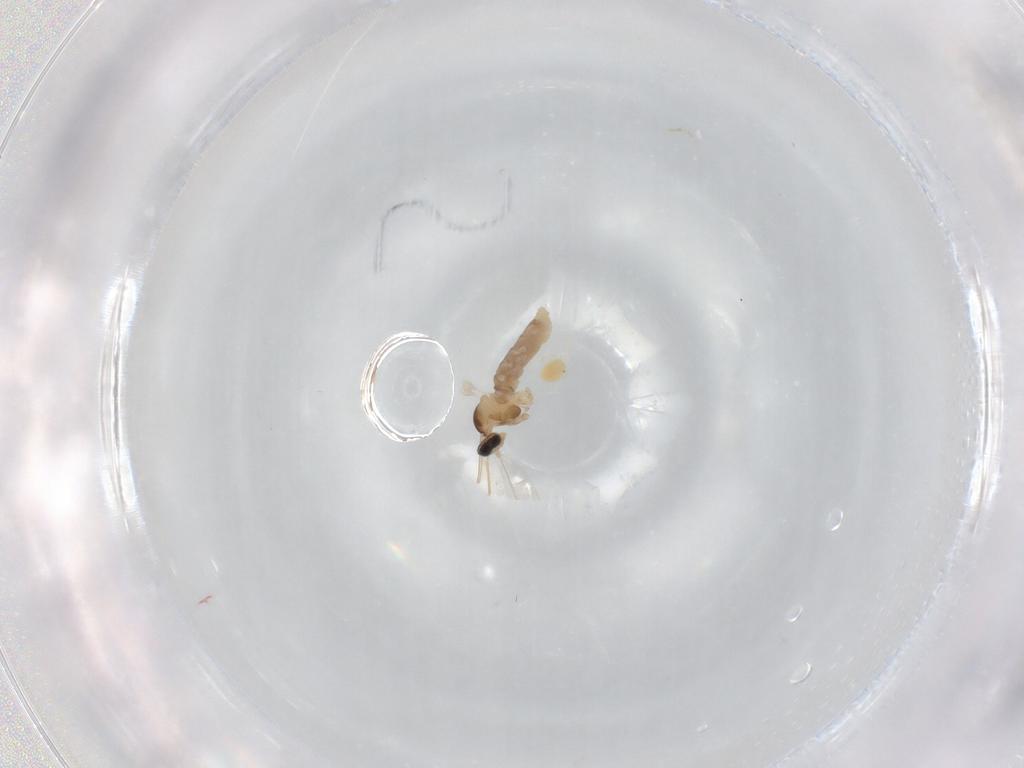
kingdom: Animalia
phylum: Arthropoda
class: Insecta
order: Diptera
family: Cecidomyiidae
